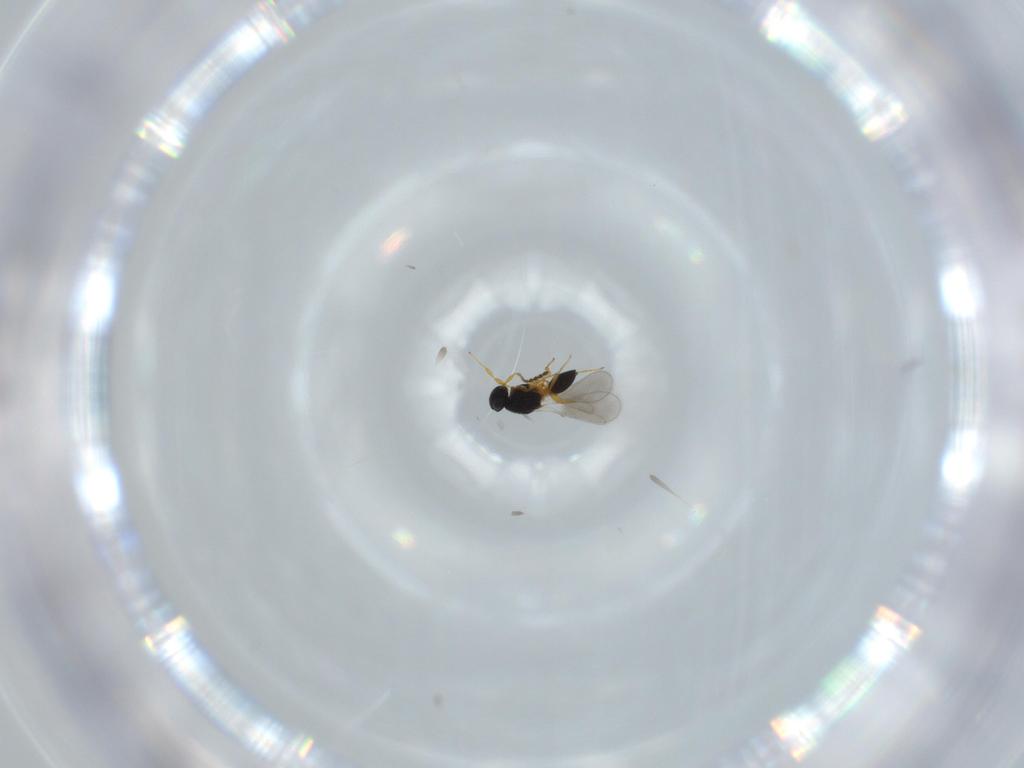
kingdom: Animalia
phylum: Arthropoda
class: Insecta
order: Hymenoptera
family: Platygastridae
